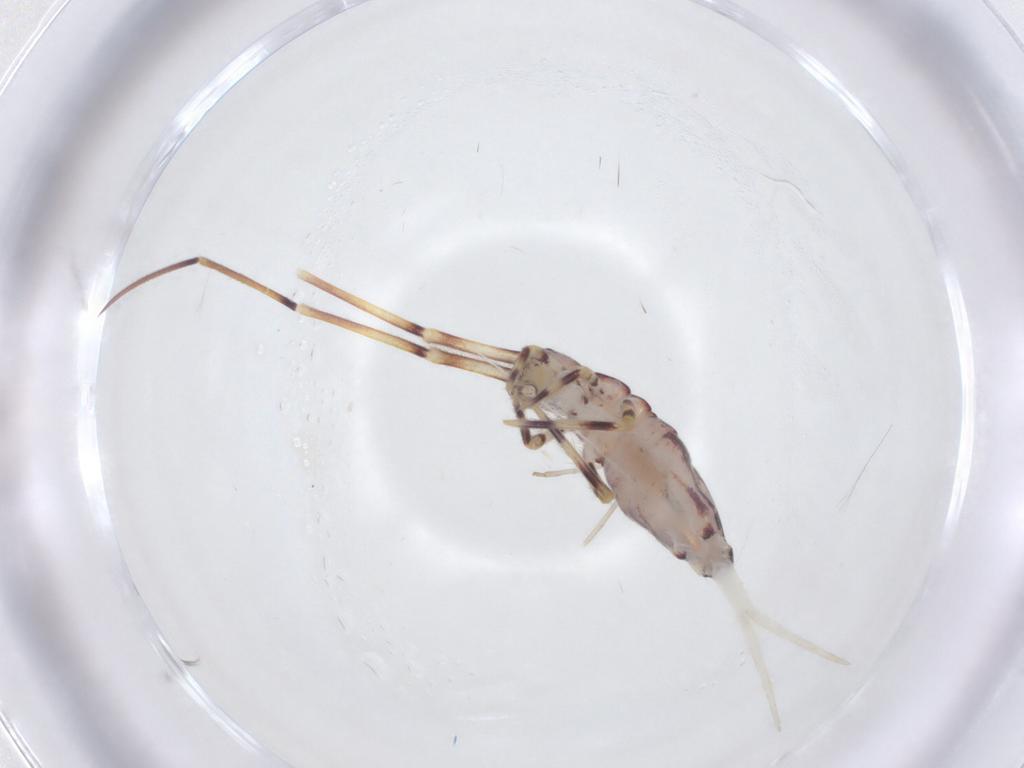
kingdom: Animalia
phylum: Arthropoda
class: Collembola
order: Entomobryomorpha
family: Entomobryidae
